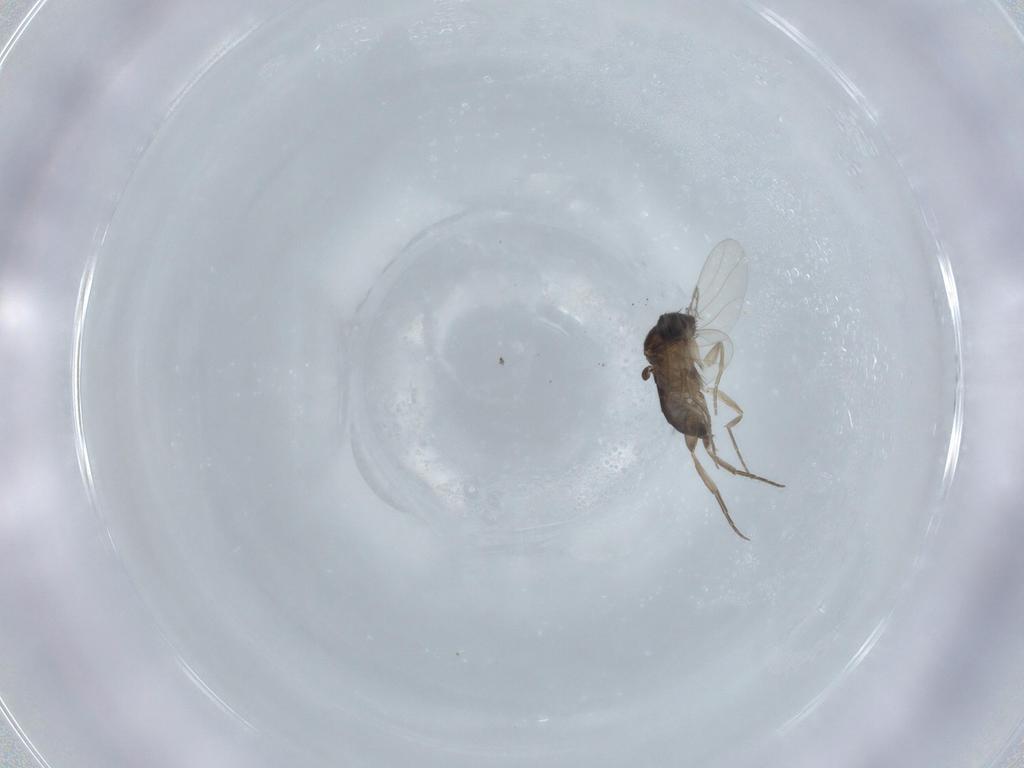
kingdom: Animalia
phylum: Arthropoda
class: Insecta
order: Diptera
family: Phoridae
